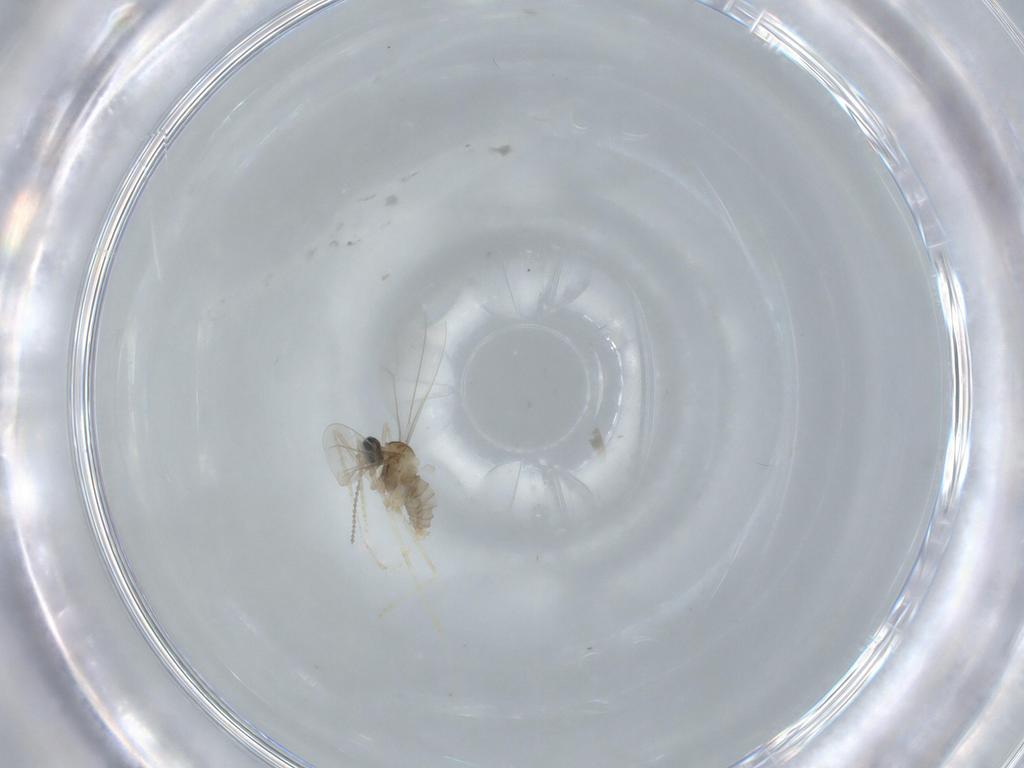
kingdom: Animalia
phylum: Arthropoda
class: Insecta
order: Diptera
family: Cecidomyiidae
